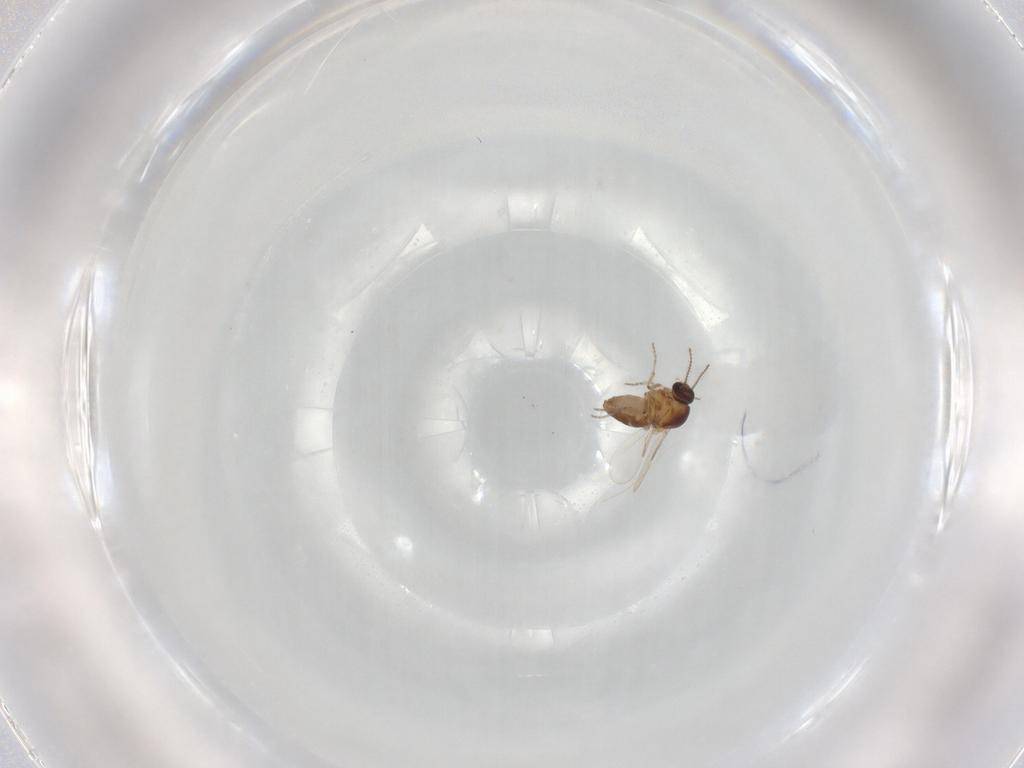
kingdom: Animalia
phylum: Arthropoda
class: Insecta
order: Diptera
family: Ceratopogonidae
